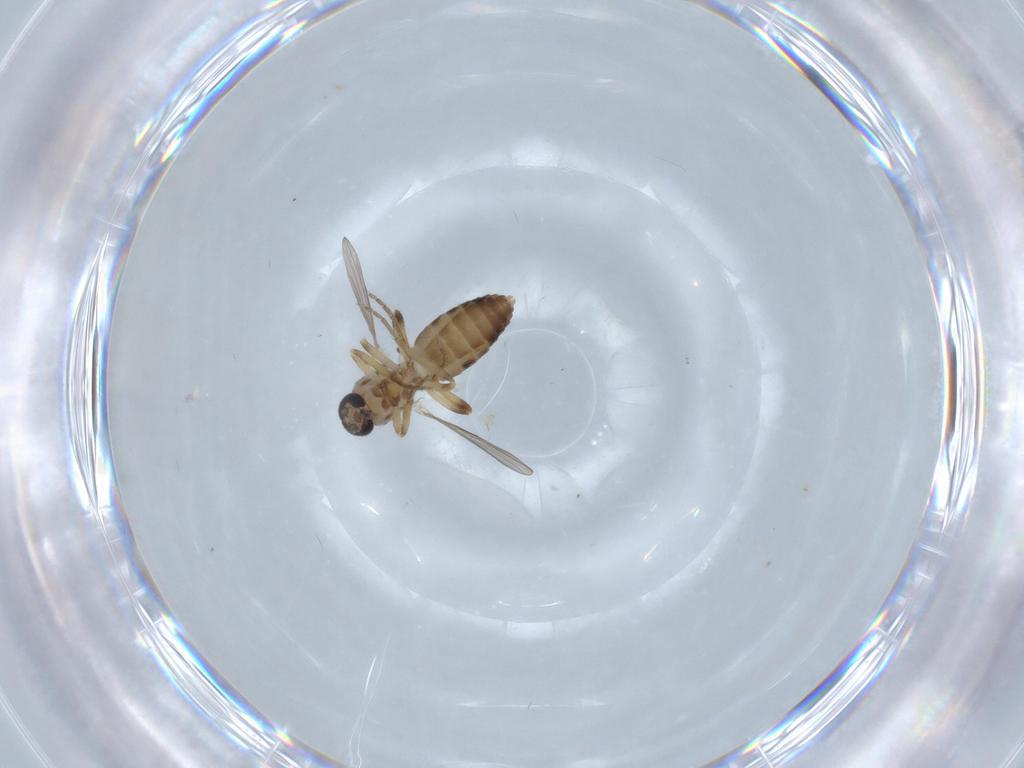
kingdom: Animalia
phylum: Arthropoda
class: Insecta
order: Diptera
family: Ceratopogonidae
